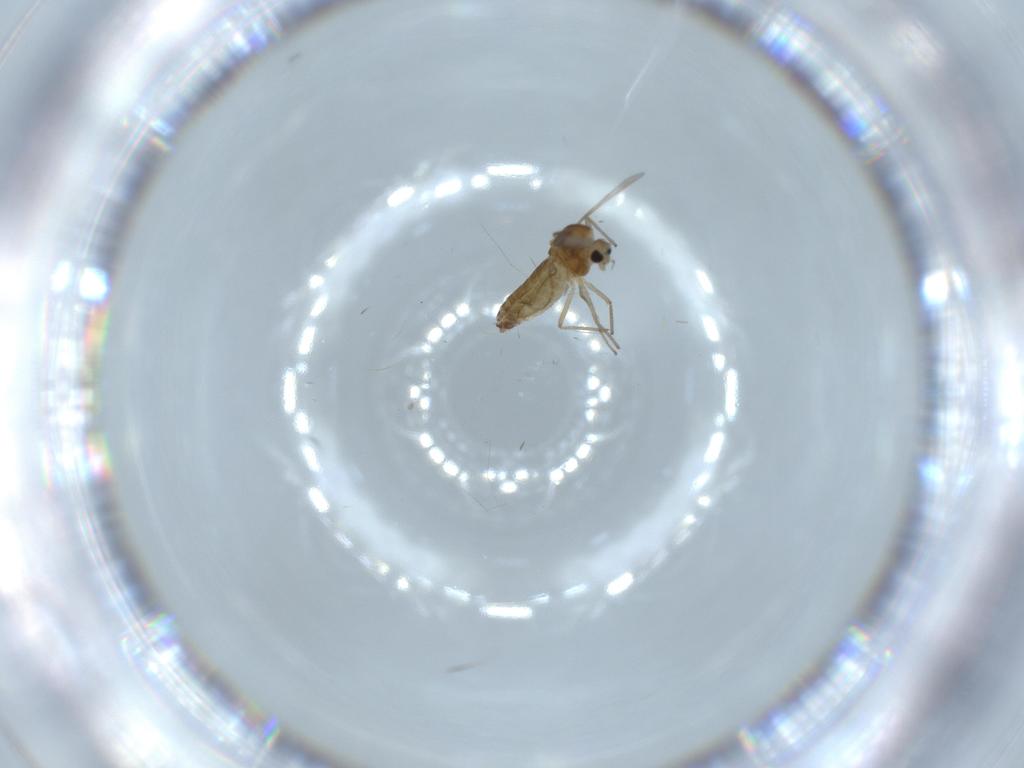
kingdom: Animalia
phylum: Arthropoda
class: Insecta
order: Diptera
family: Chironomidae
